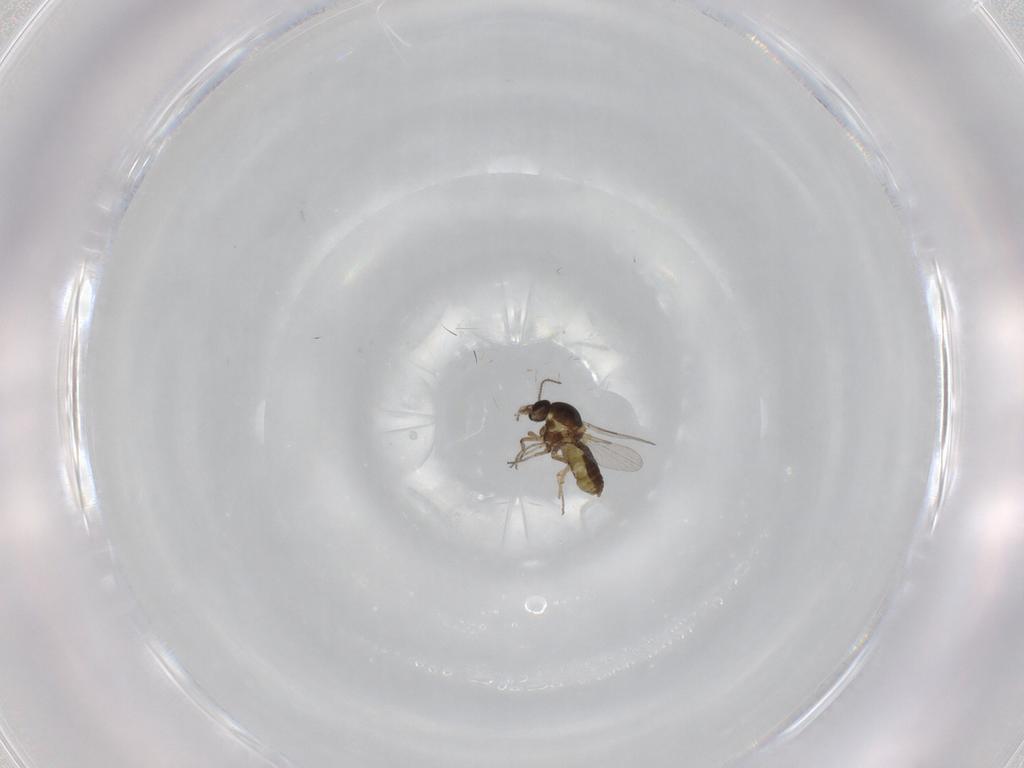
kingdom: Animalia
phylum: Arthropoda
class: Insecta
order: Diptera
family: Ceratopogonidae
